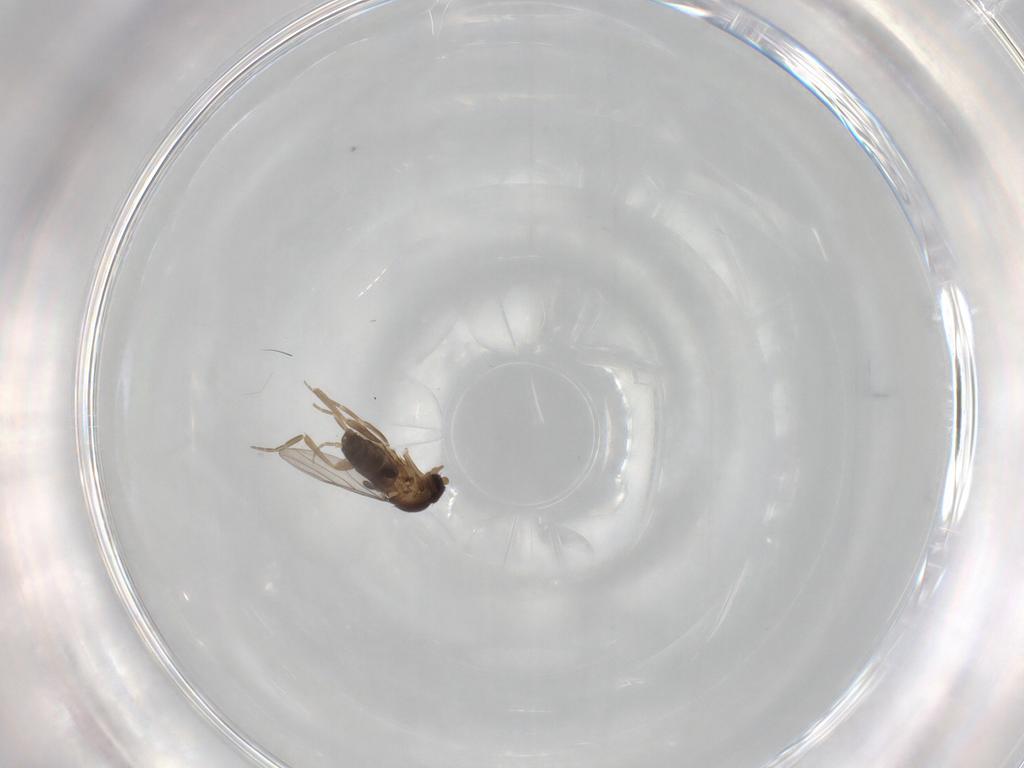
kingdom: Animalia
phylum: Arthropoda
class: Insecta
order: Diptera
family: Phoridae
